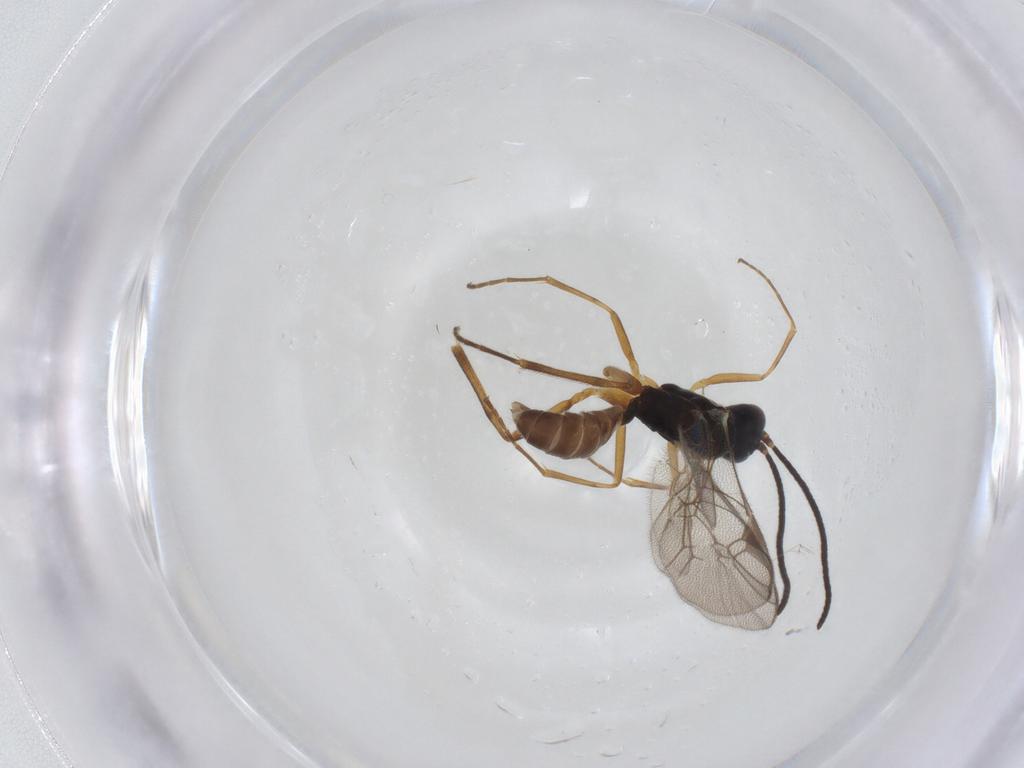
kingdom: Animalia
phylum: Arthropoda
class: Insecta
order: Hymenoptera
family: Ichneumonidae
